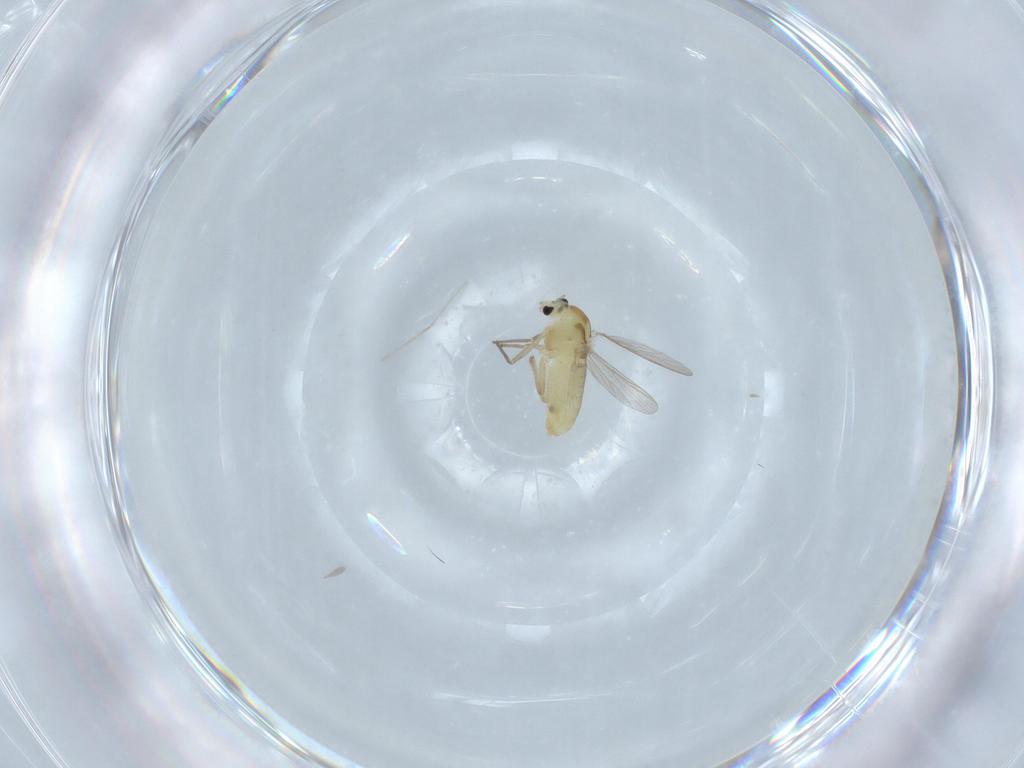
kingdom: Animalia
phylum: Arthropoda
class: Insecta
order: Diptera
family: Chironomidae
